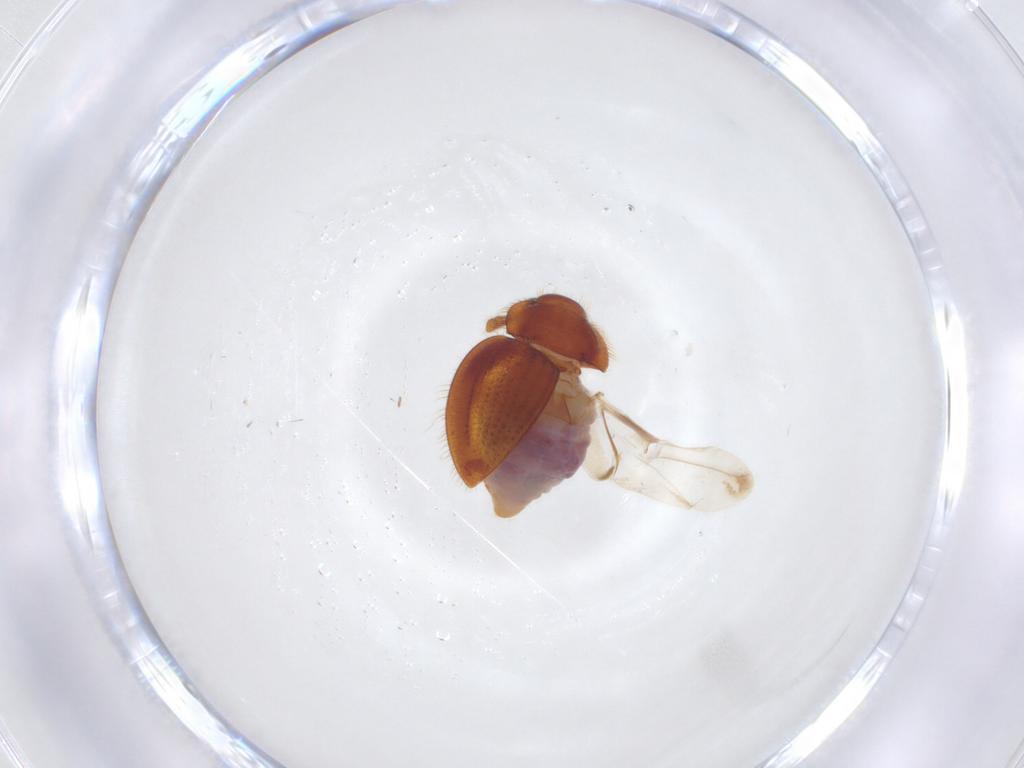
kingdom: Animalia
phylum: Arthropoda
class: Insecta
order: Coleoptera
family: Anamorphidae
